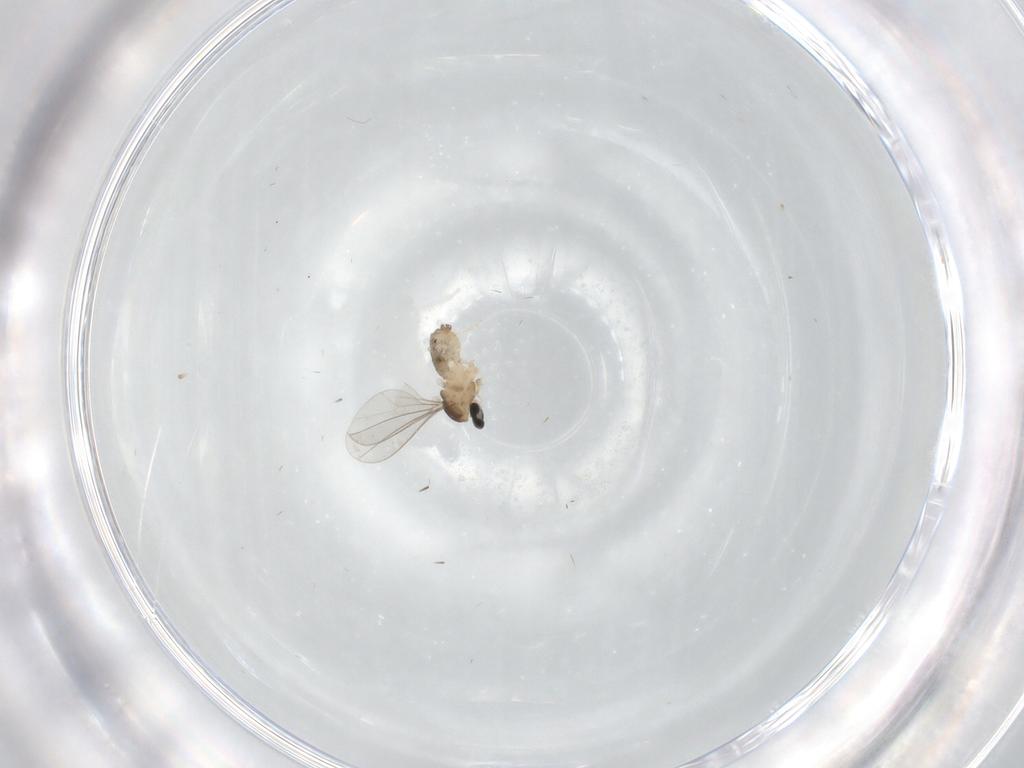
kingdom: Animalia
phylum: Arthropoda
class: Insecta
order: Diptera
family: Cecidomyiidae
